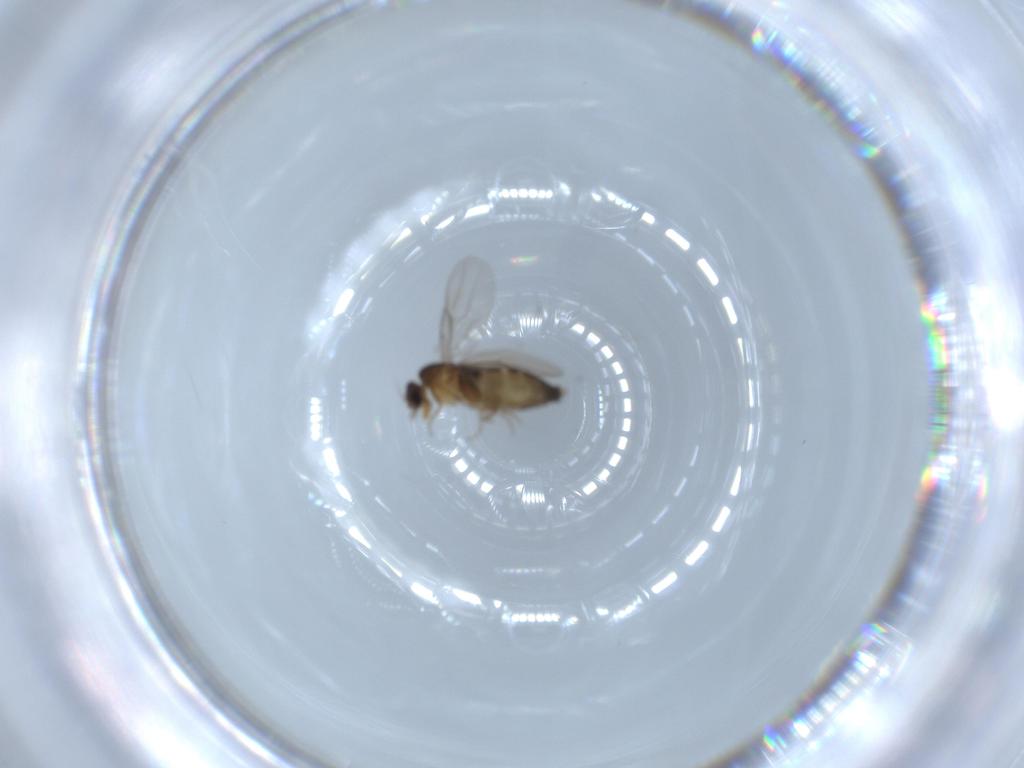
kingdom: Animalia
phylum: Arthropoda
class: Insecta
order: Diptera
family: Phoridae
